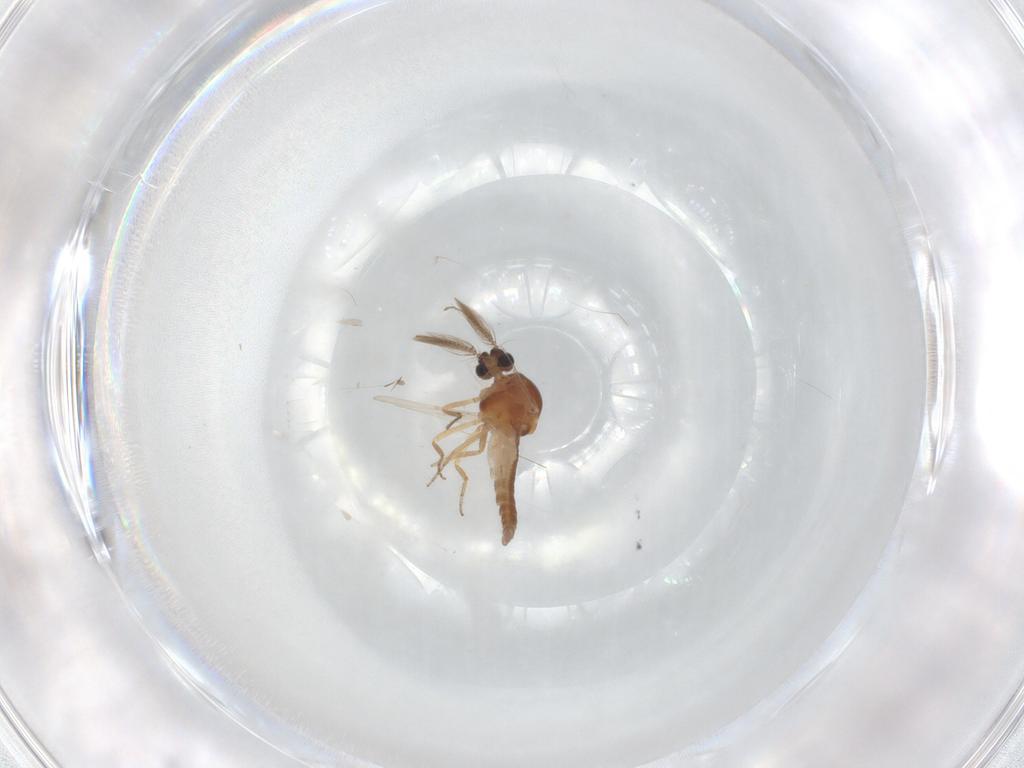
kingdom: Animalia
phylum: Arthropoda
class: Insecta
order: Diptera
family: Ceratopogonidae
